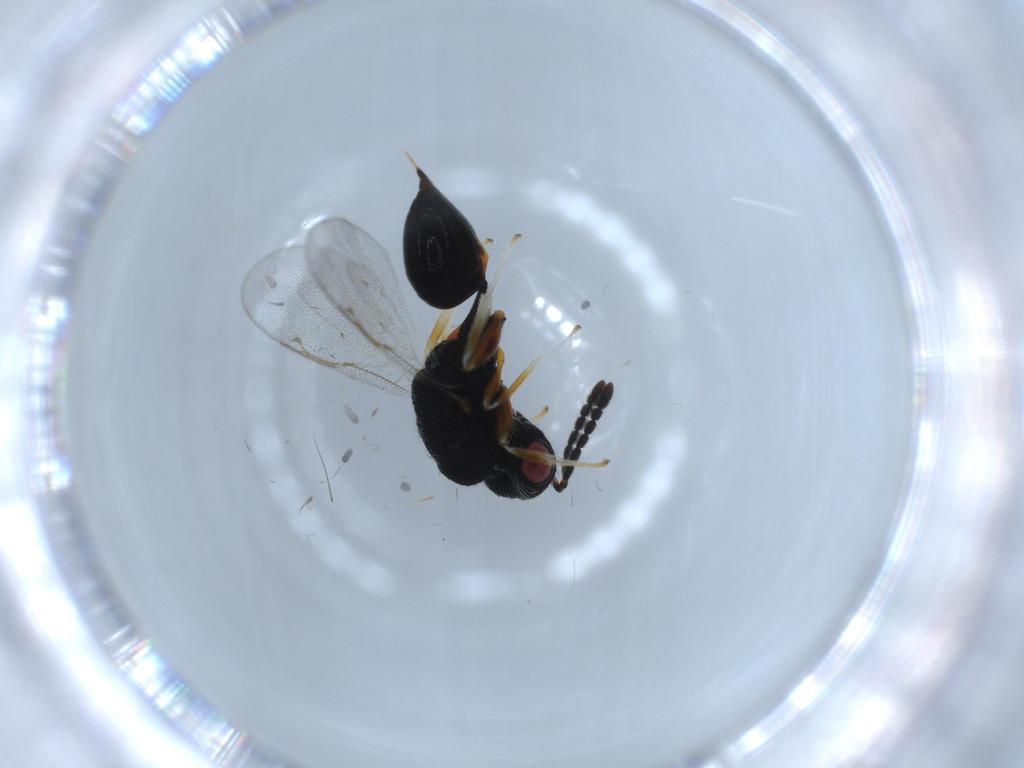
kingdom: Animalia
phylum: Arthropoda
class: Insecta
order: Hymenoptera
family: Eurytomidae
